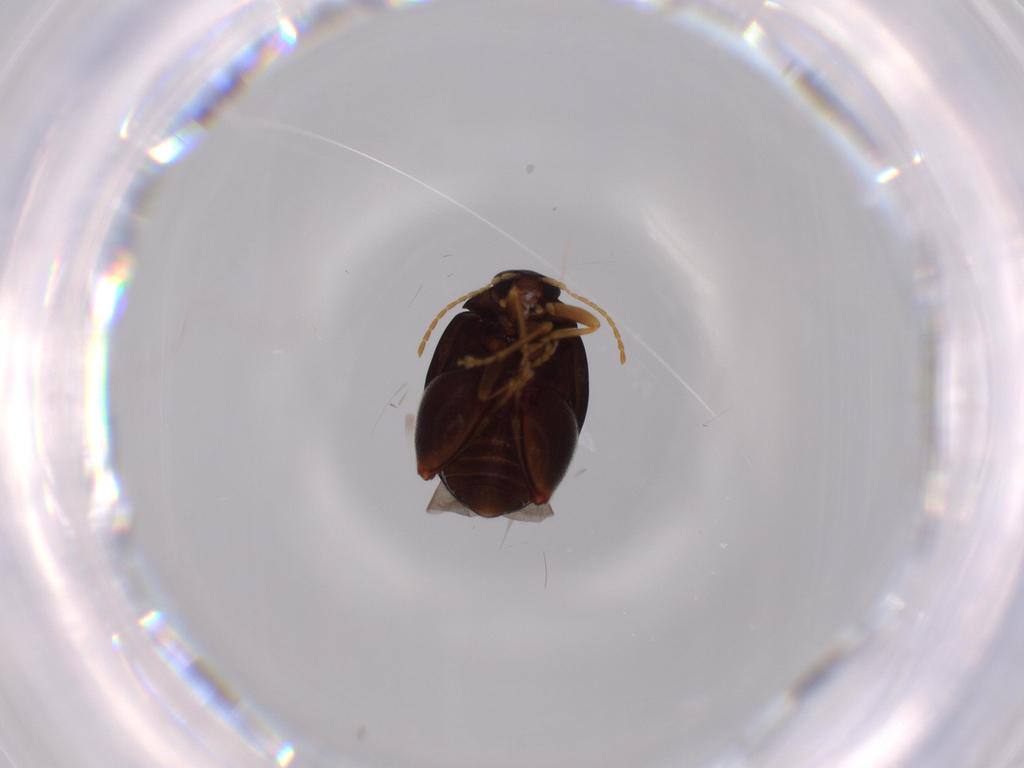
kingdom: Animalia
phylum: Arthropoda
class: Insecta
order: Coleoptera
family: Chrysomelidae
